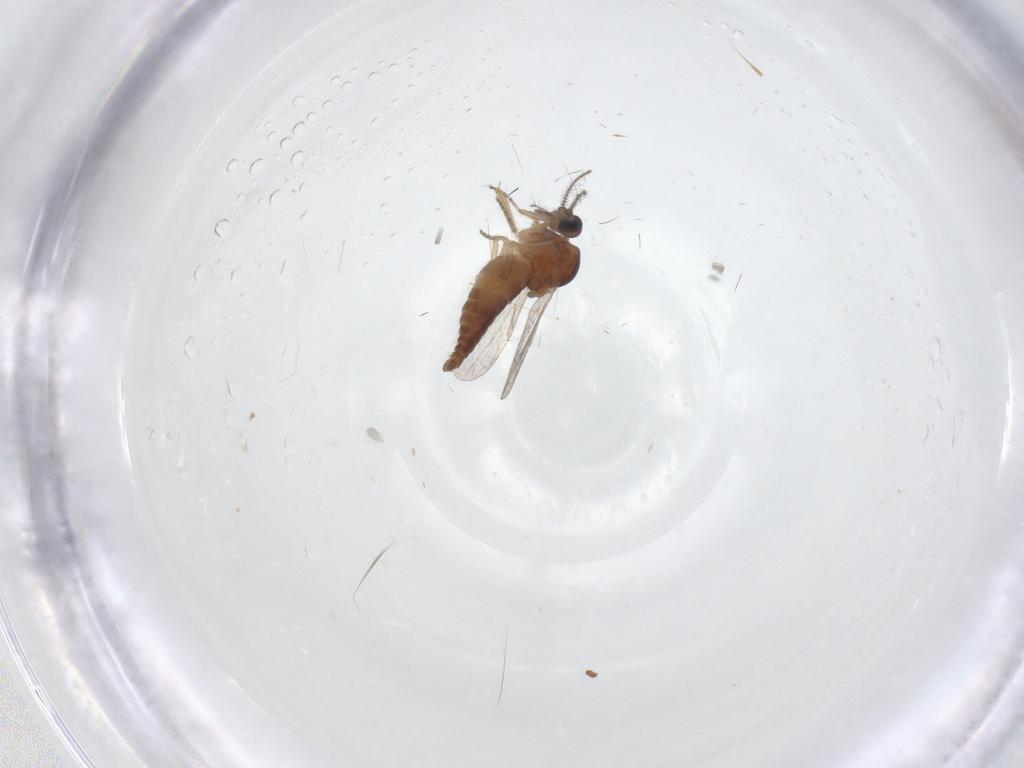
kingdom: Animalia
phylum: Arthropoda
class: Insecta
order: Diptera
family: Ceratopogonidae
